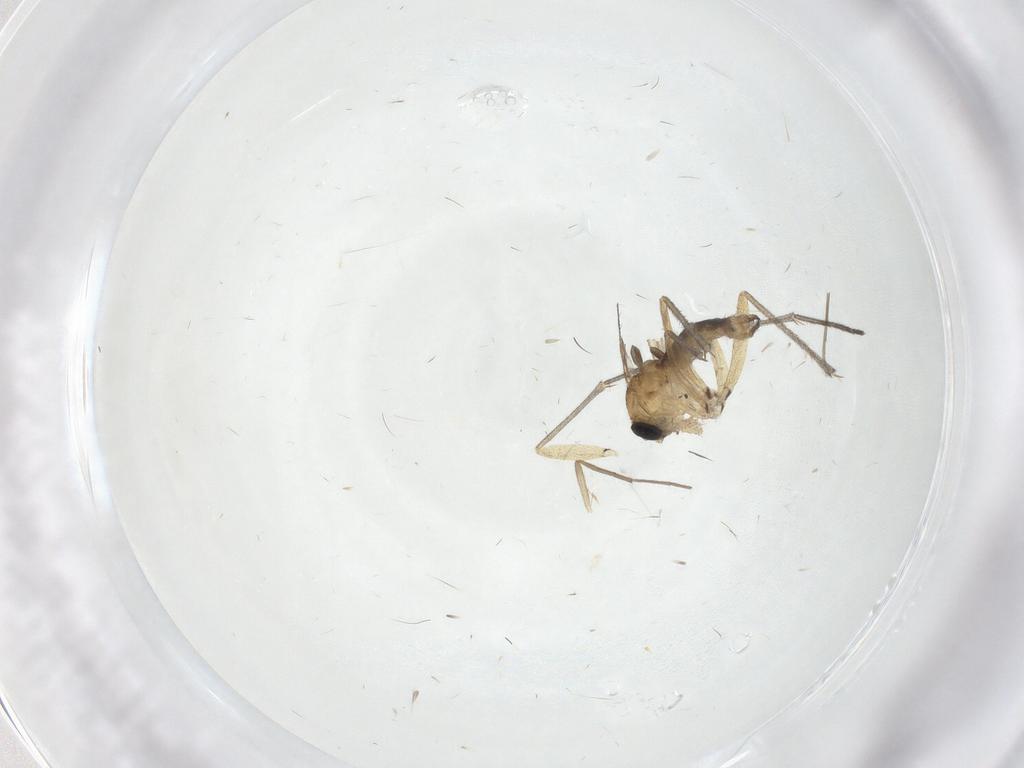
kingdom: Animalia
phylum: Arthropoda
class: Insecta
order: Diptera
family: Sciaridae
